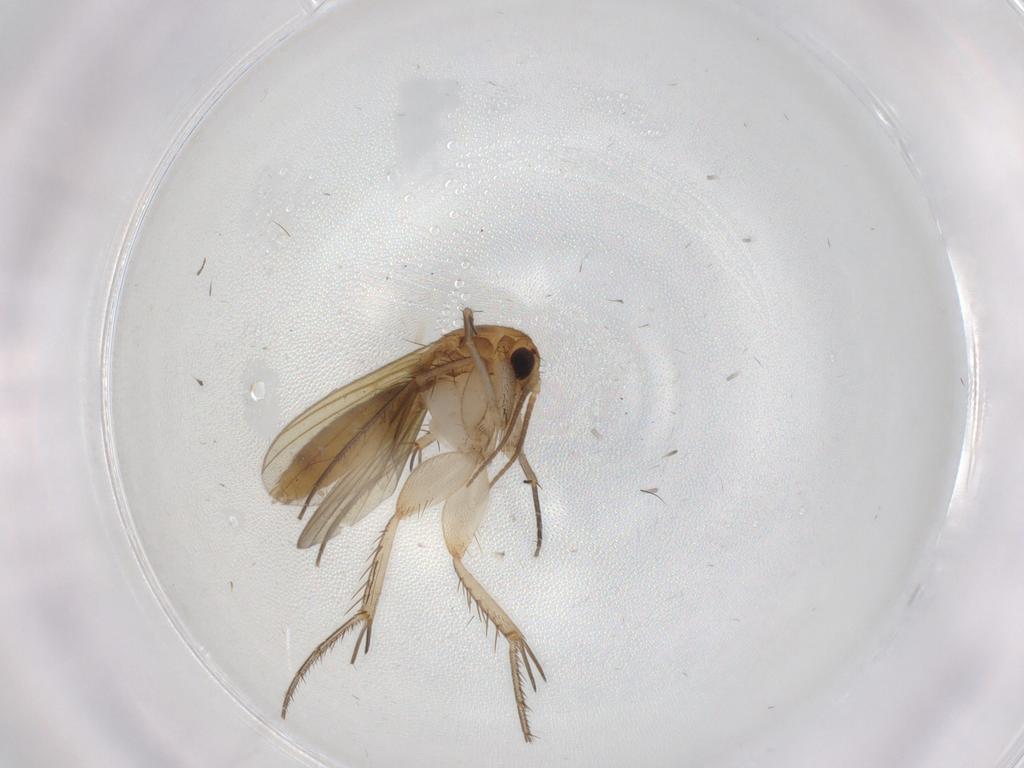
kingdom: Animalia
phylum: Arthropoda
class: Insecta
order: Diptera
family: Mycetophilidae
